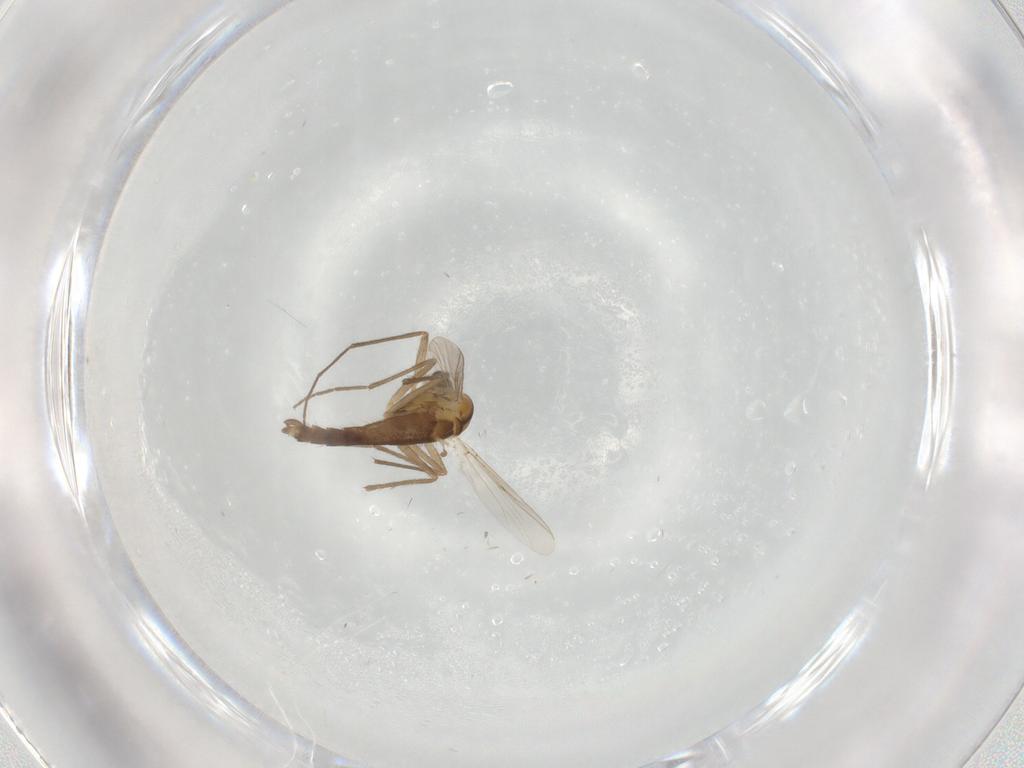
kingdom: Animalia
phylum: Arthropoda
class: Insecta
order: Diptera
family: Chironomidae
